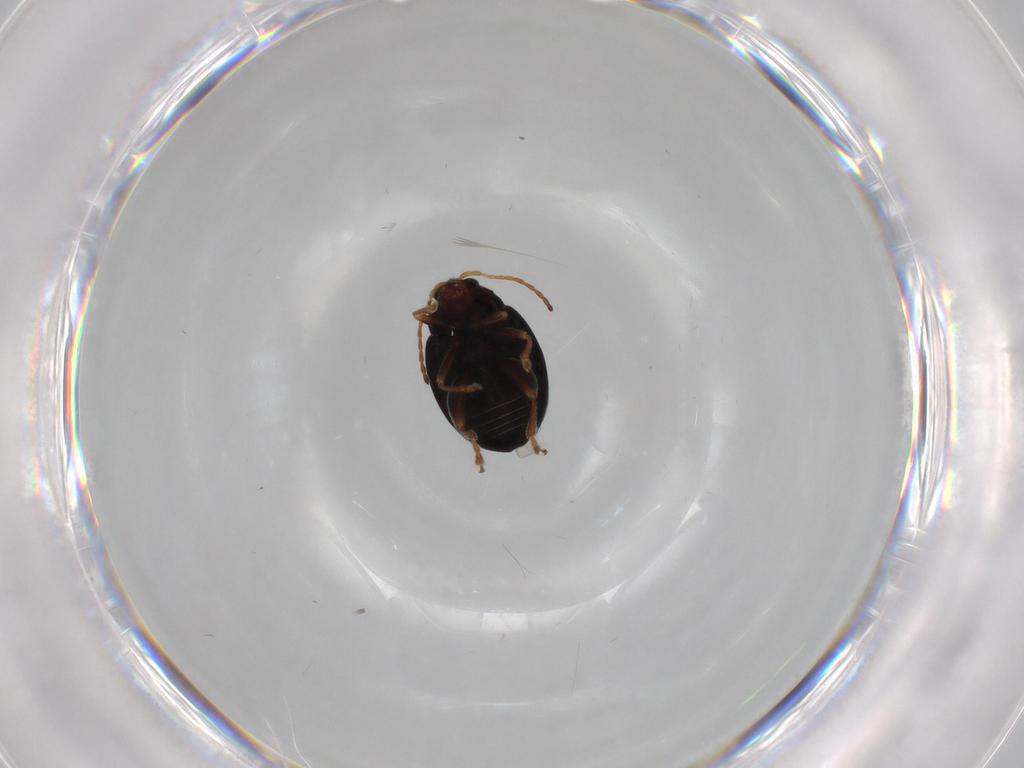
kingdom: Animalia
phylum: Arthropoda
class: Insecta
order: Coleoptera
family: Chrysomelidae
